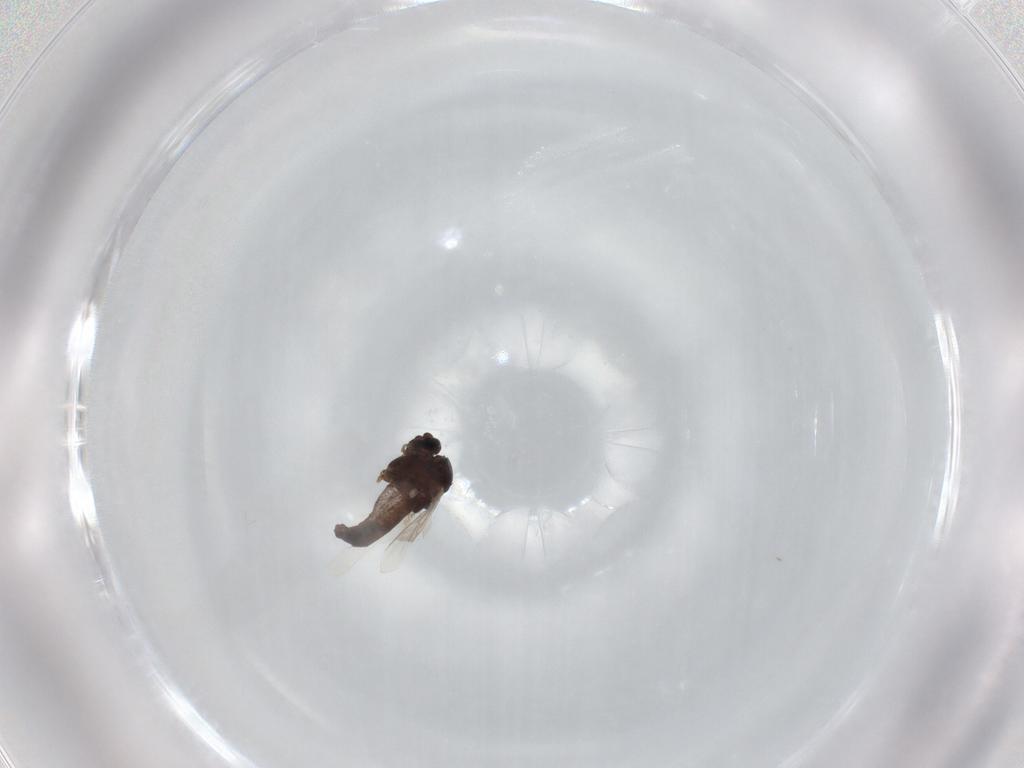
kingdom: Animalia
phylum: Arthropoda
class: Insecta
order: Diptera
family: Chironomidae
